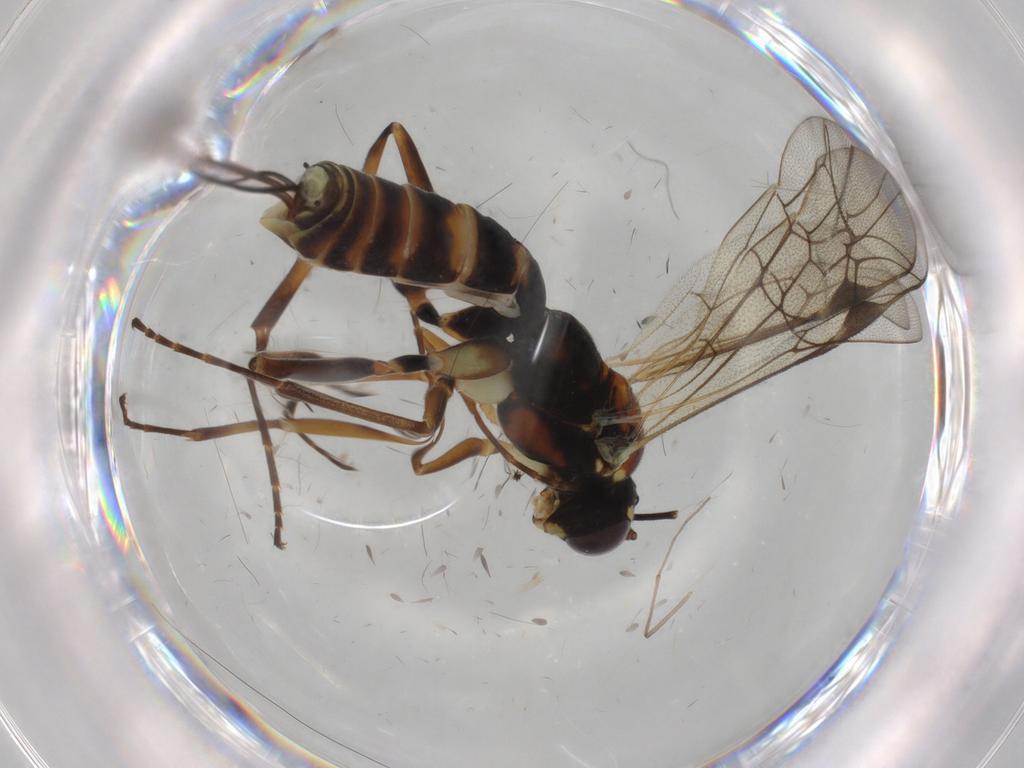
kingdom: Animalia
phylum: Arthropoda
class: Insecta
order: Hymenoptera
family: Ichneumonidae
